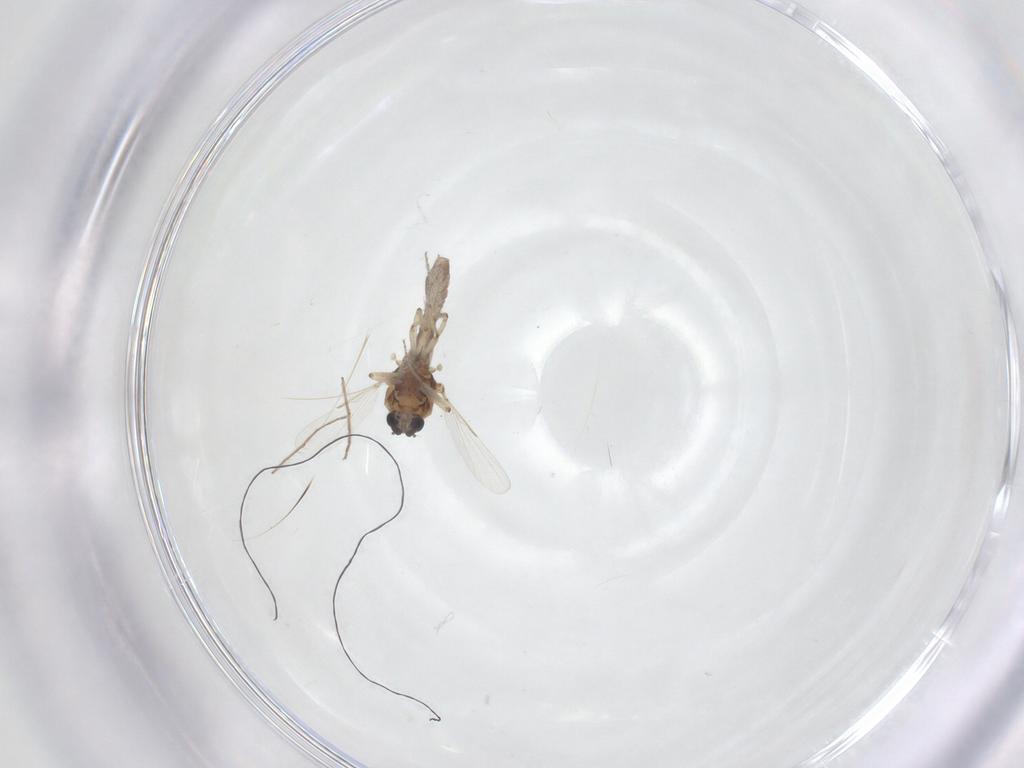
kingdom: Animalia
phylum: Arthropoda
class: Insecta
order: Diptera
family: Ceratopogonidae
